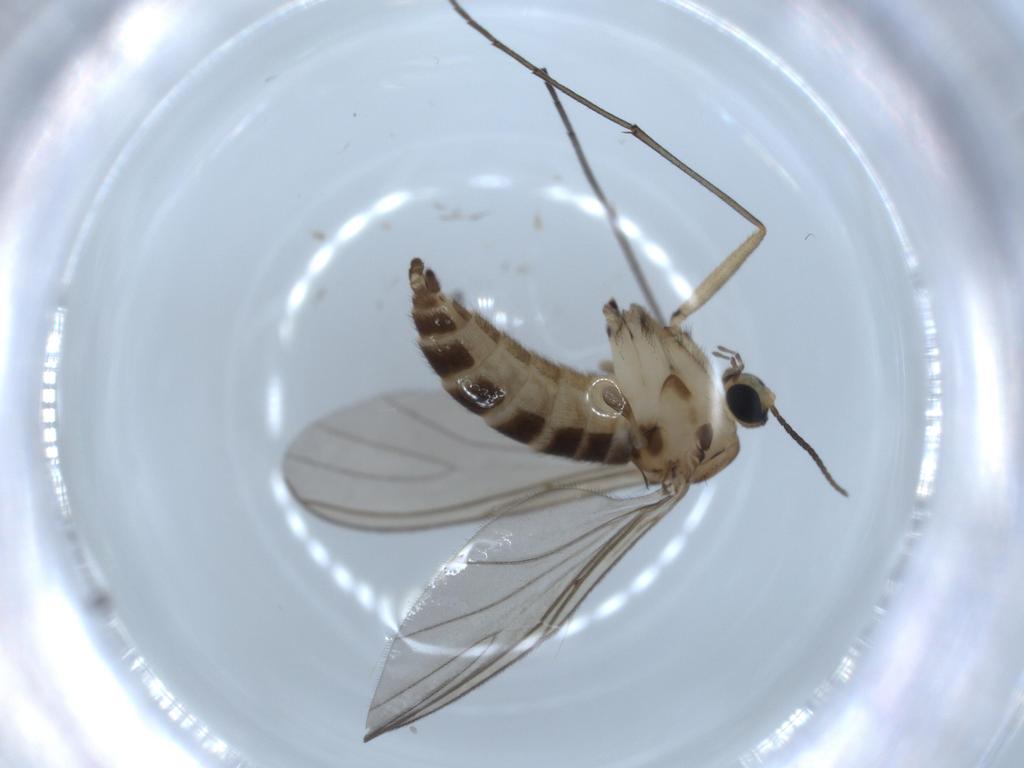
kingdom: Animalia
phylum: Arthropoda
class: Insecta
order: Diptera
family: Sciaridae
